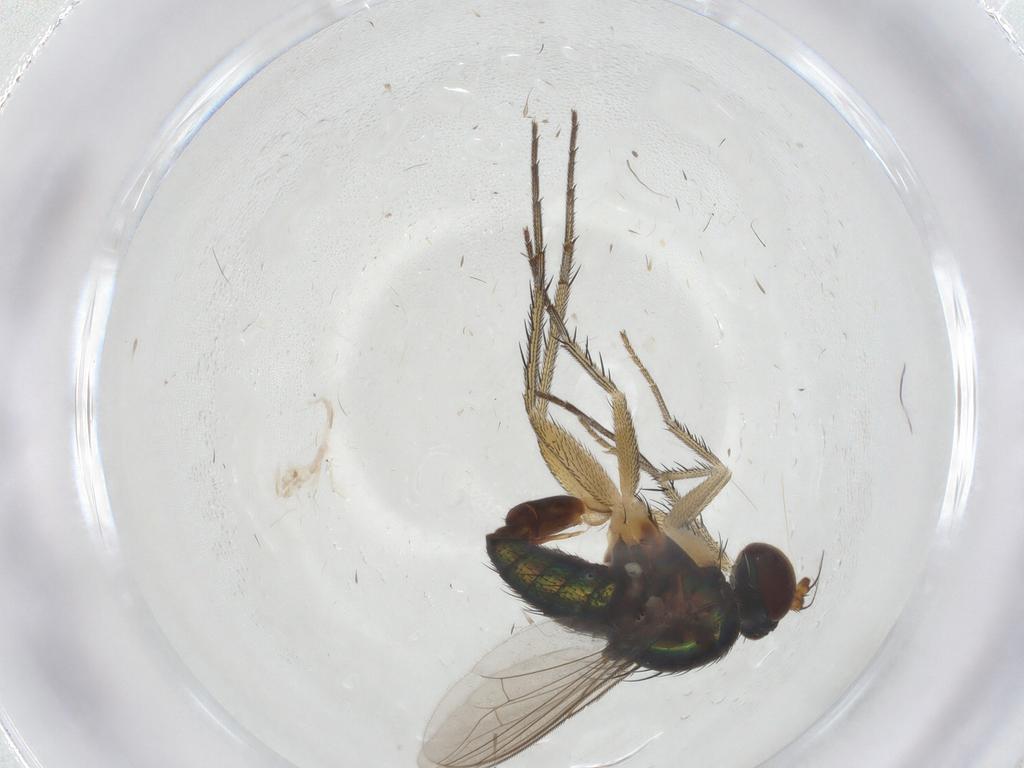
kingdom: Animalia
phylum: Arthropoda
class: Insecta
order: Diptera
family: Dolichopodidae
